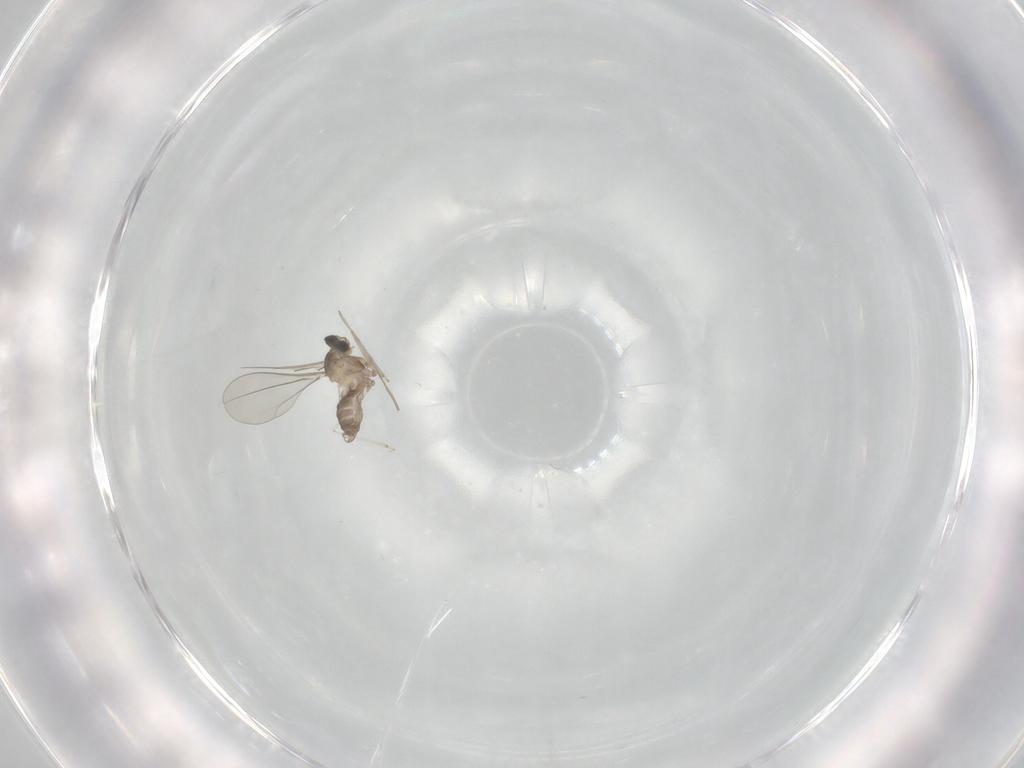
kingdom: Animalia
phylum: Arthropoda
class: Insecta
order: Diptera
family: Cecidomyiidae
